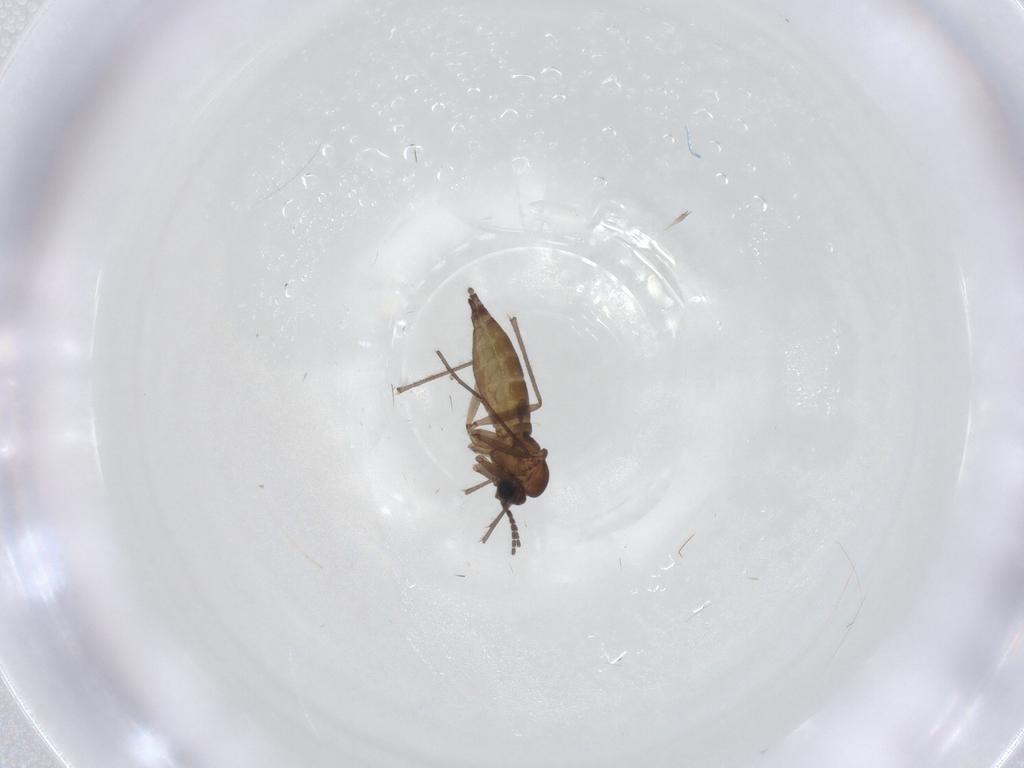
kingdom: Animalia
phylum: Arthropoda
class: Insecta
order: Diptera
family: Sciaridae
